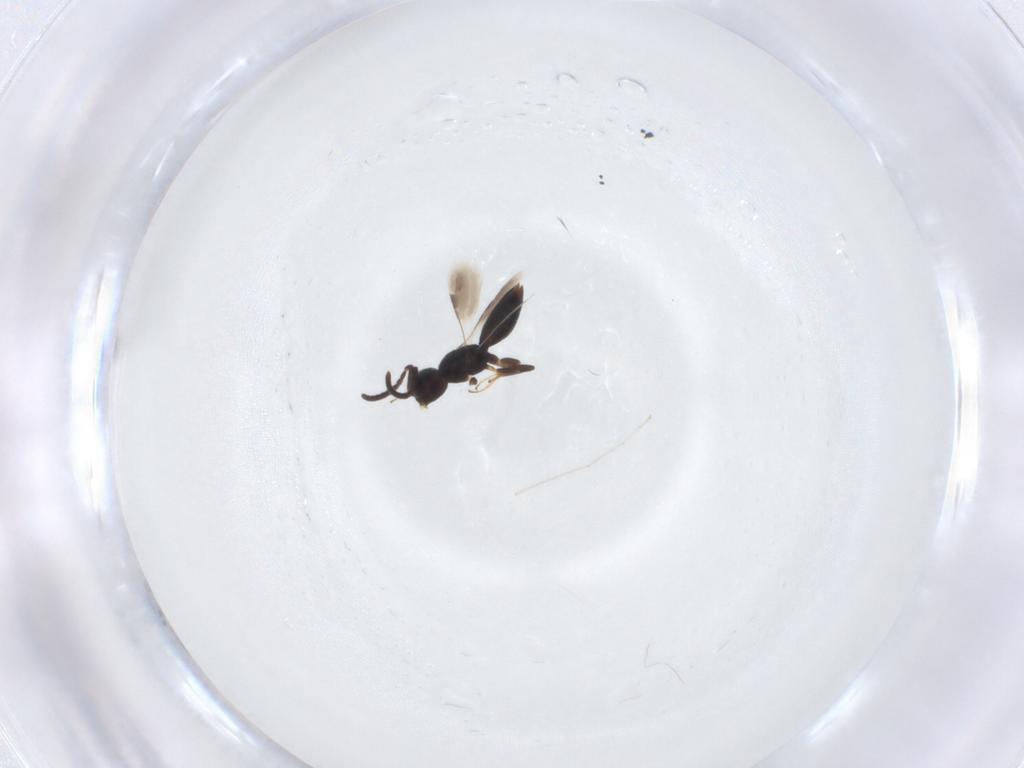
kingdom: Animalia
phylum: Arthropoda
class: Insecta
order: Hymenoptera
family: Megaspilidae
